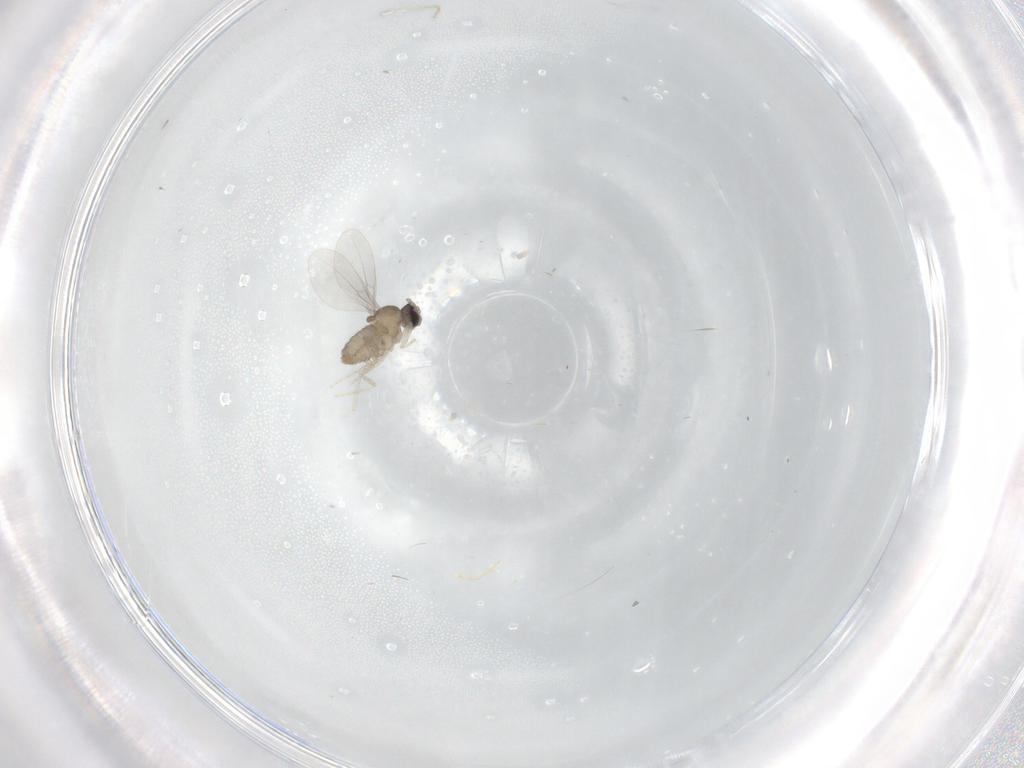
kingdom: Animalia
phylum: Arthropoda
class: Insecta
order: Diptera
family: Cecidomyiidae
